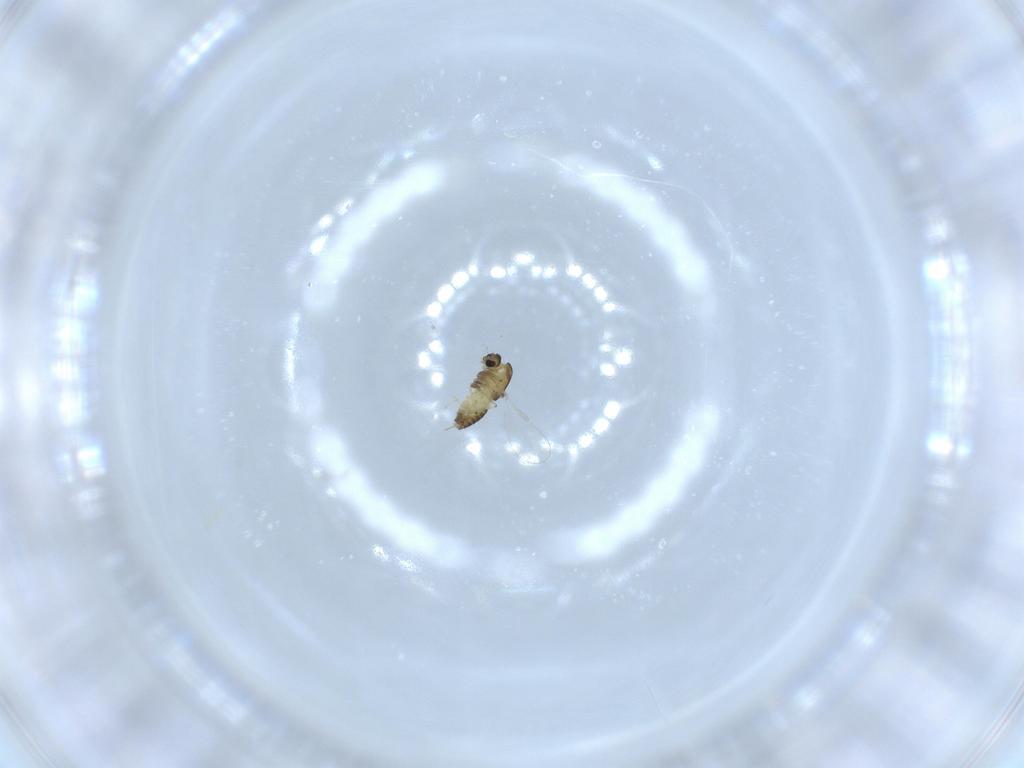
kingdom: Animalia
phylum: Arthropoda
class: Insecta
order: Diptera
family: Chironomidae
